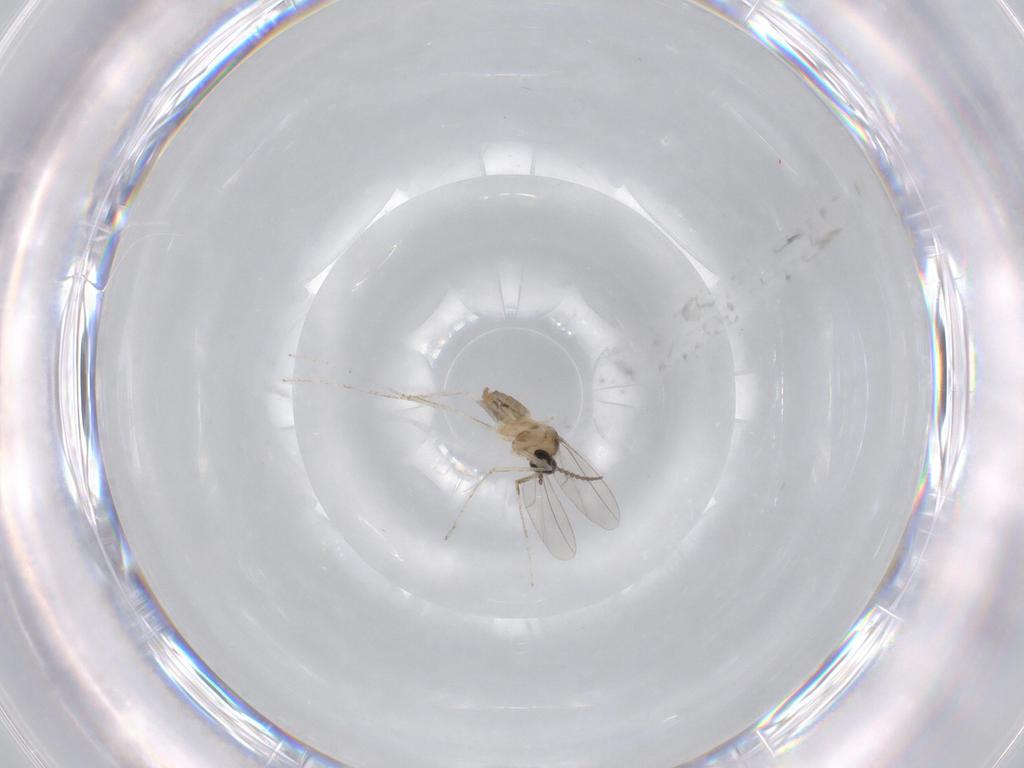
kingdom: Animalia
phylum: Arthropoda
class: Insecta
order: Diptera
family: Cecidomyiidae
